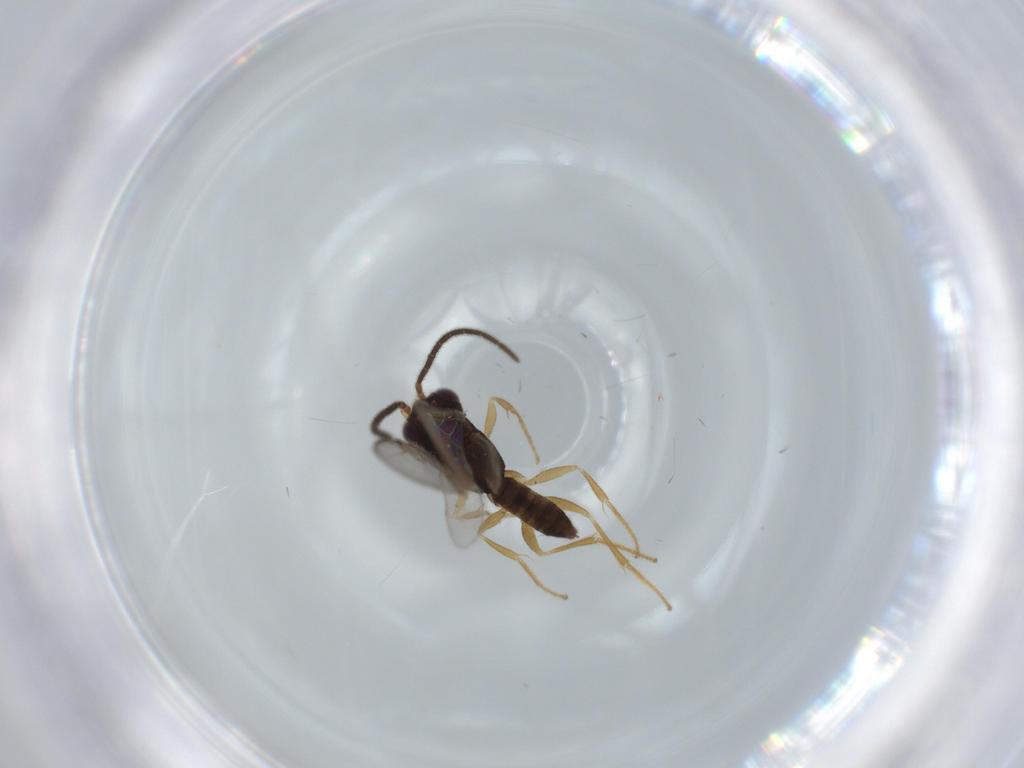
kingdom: Animalia
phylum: Arthropoda
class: Insecta
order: Hymenoptera
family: Dryinidae
